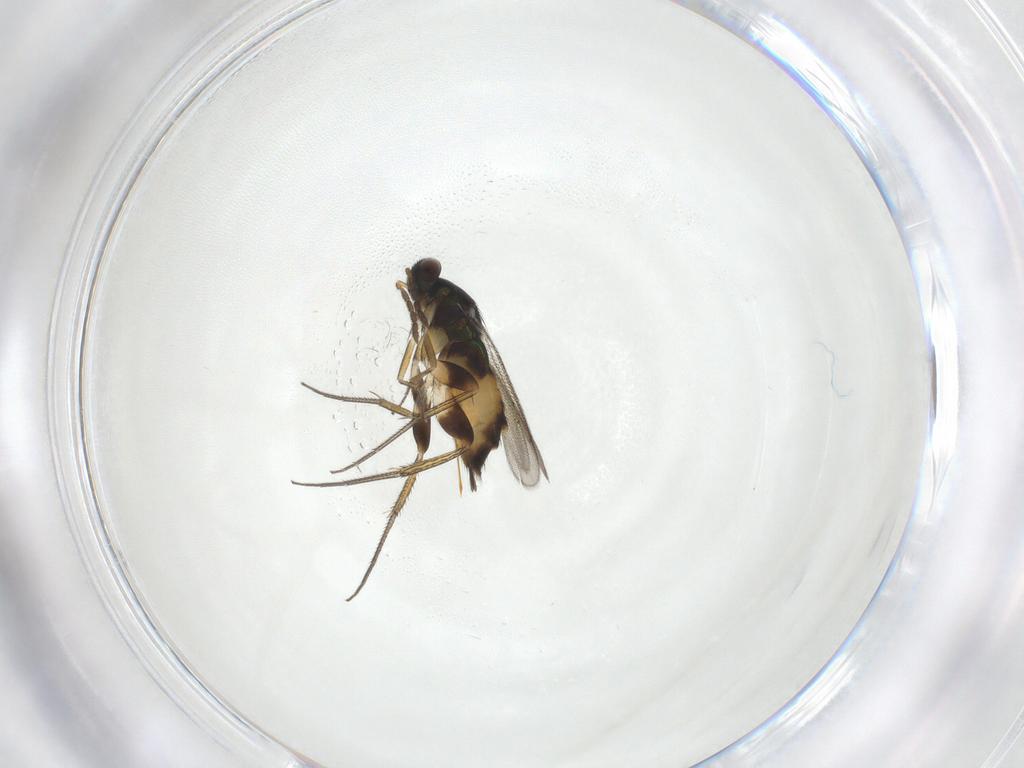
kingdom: Animalia
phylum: Arthropoda
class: Insecta
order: Hymenoptera
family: Eulophidae
